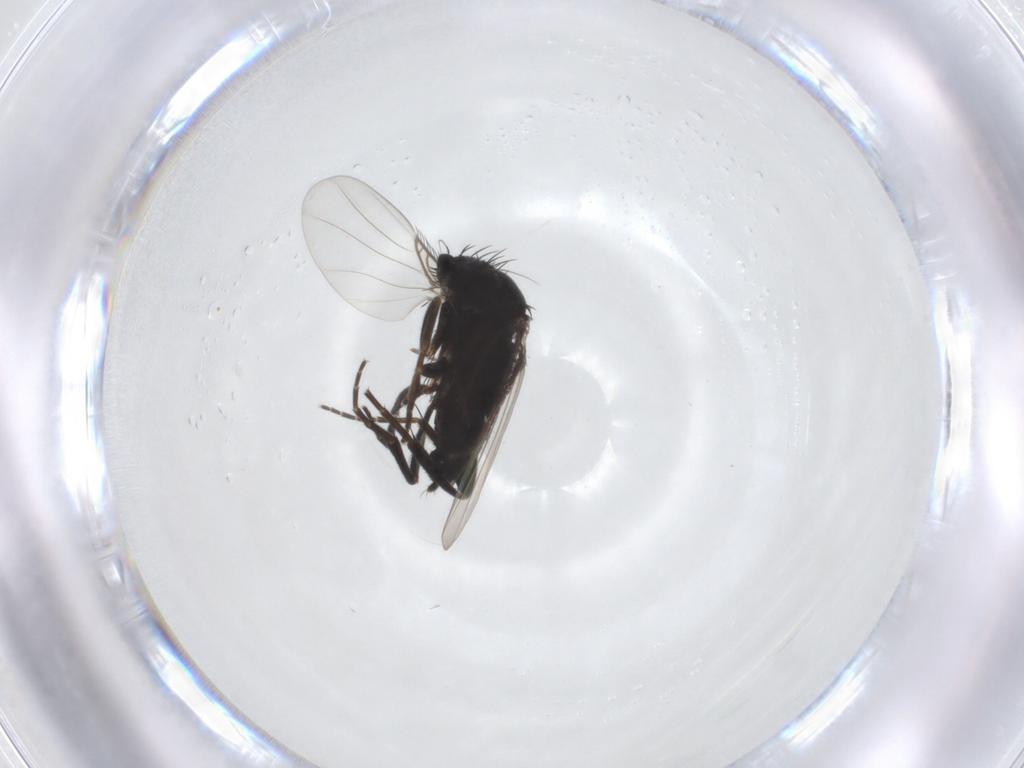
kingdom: Animalia
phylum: Arthropoda
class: Insecta
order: Diptera
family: Phoridae
